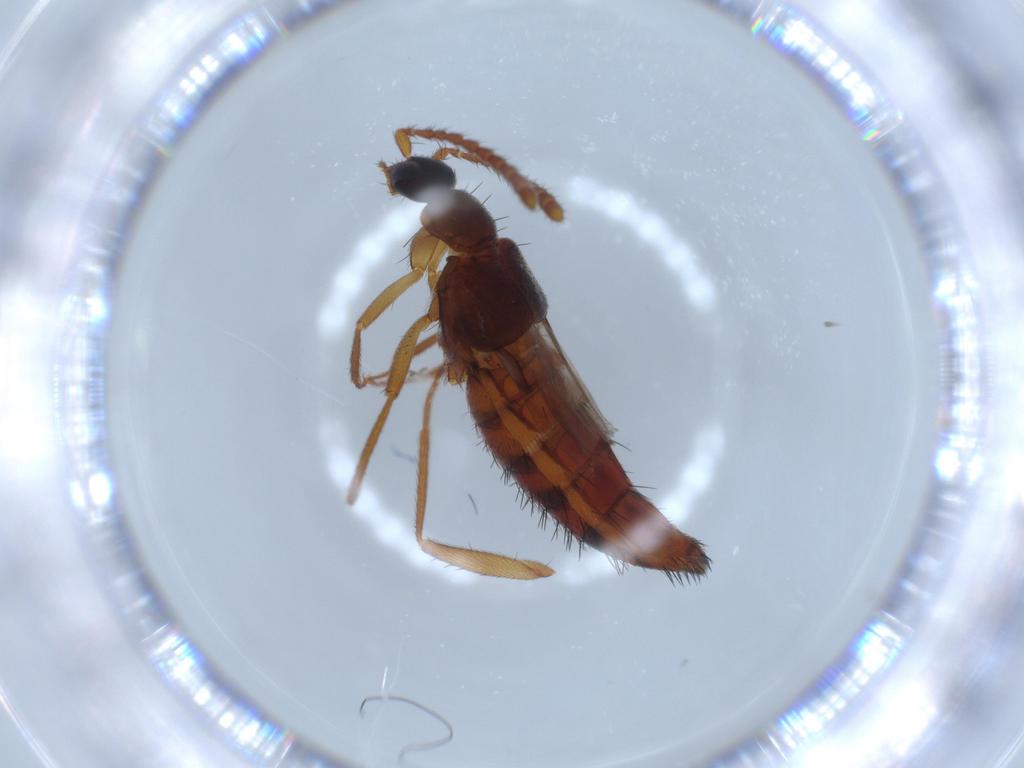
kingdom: Animalia
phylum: Arthropoda
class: Insecta
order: Coleoptera
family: Staphylinidae
